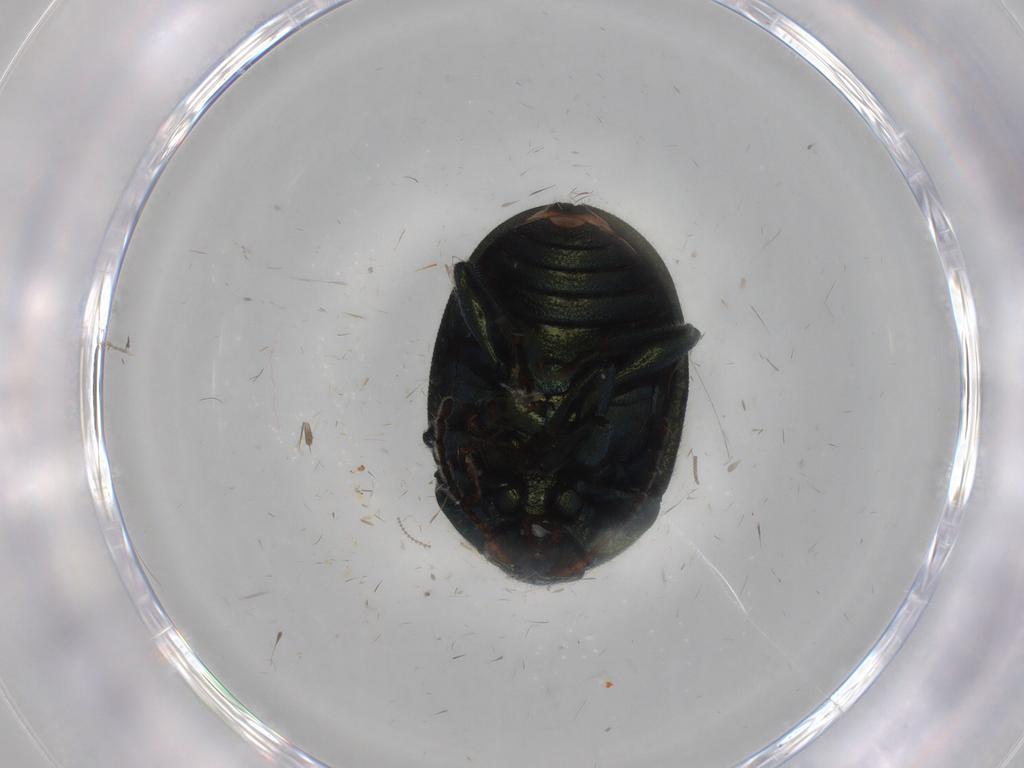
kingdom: Animalia
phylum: Arthropoda
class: Insecta
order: Coleoptera
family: Chrysomelidae
